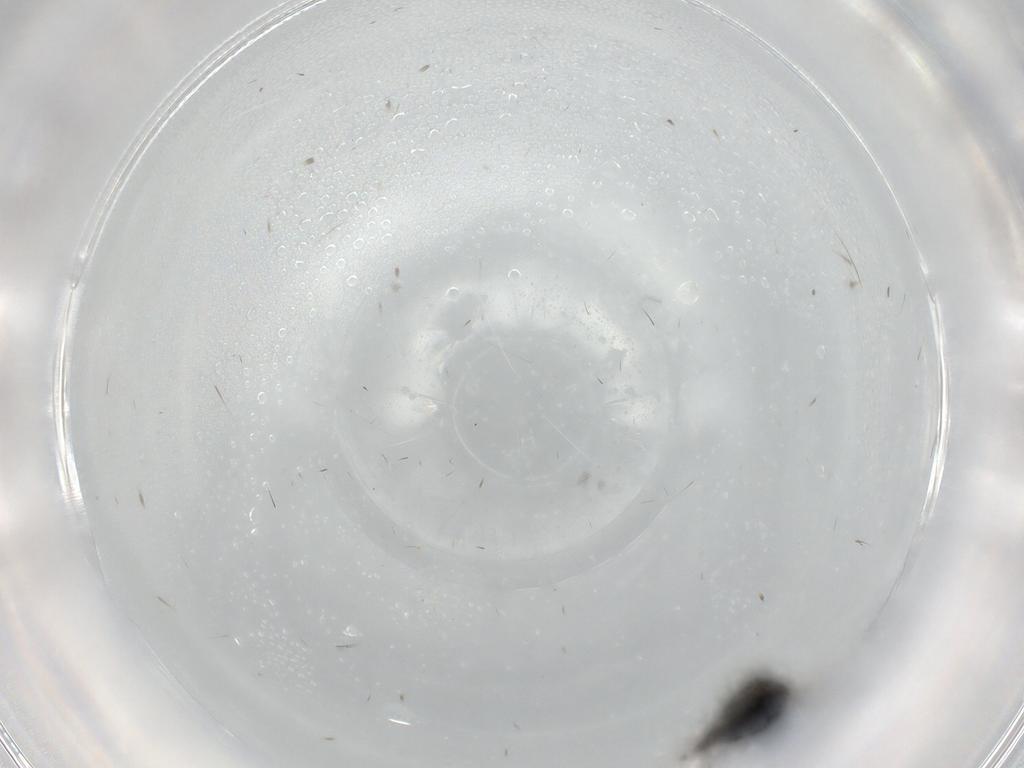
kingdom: Animalia
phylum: Arthropoda
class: Insecta
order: Hymenoptera
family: Pteromalidae
